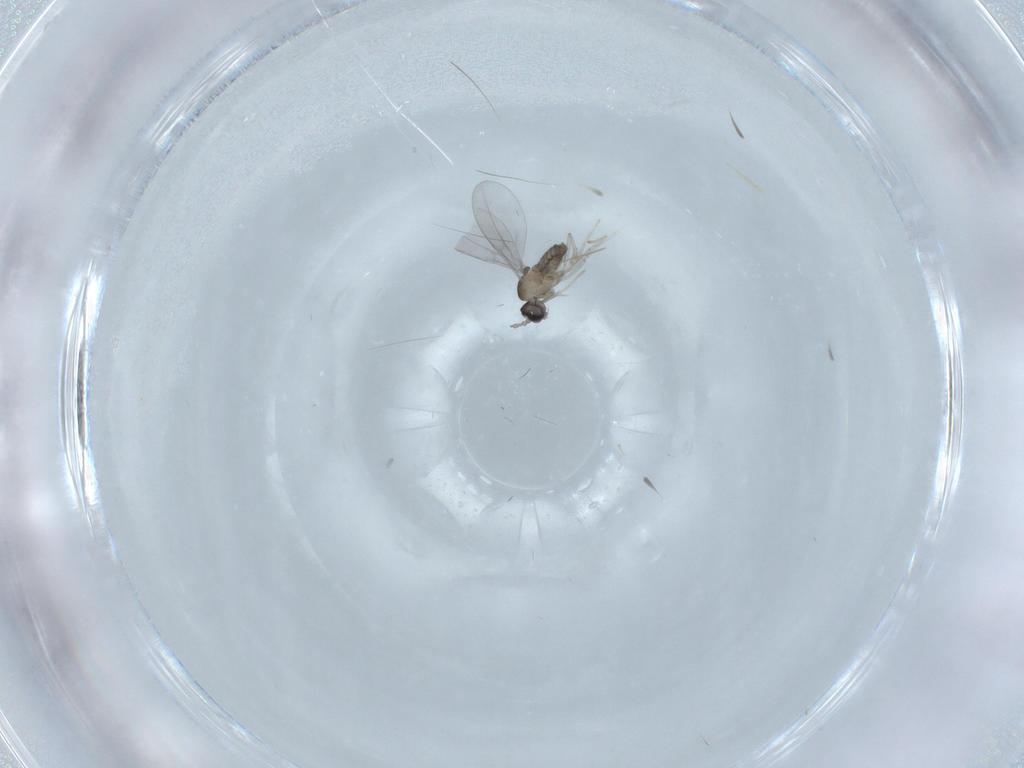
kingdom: Animalia
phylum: Arthropoda
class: Insecta
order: Diptera
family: Cecidomyiidae
